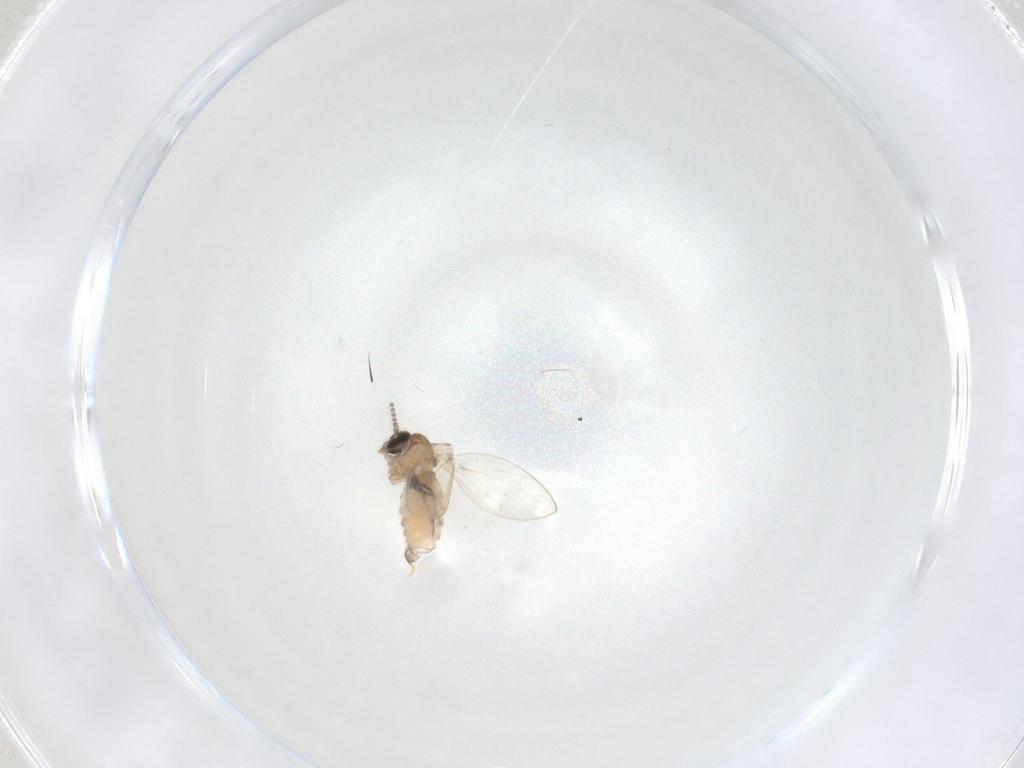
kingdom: Animalia
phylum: Arthropoda
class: Insecta
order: Diptera
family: Psychodidae
